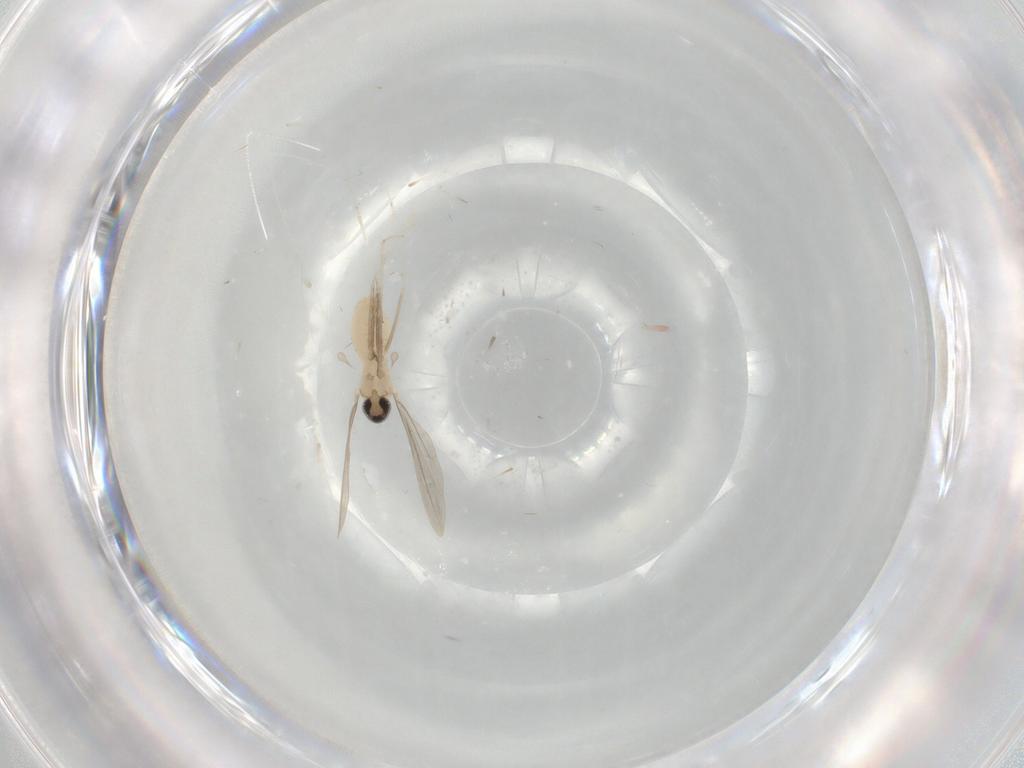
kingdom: Animalia
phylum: Arthropoda
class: Insecta
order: Diptera
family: Cecidomyiidae
